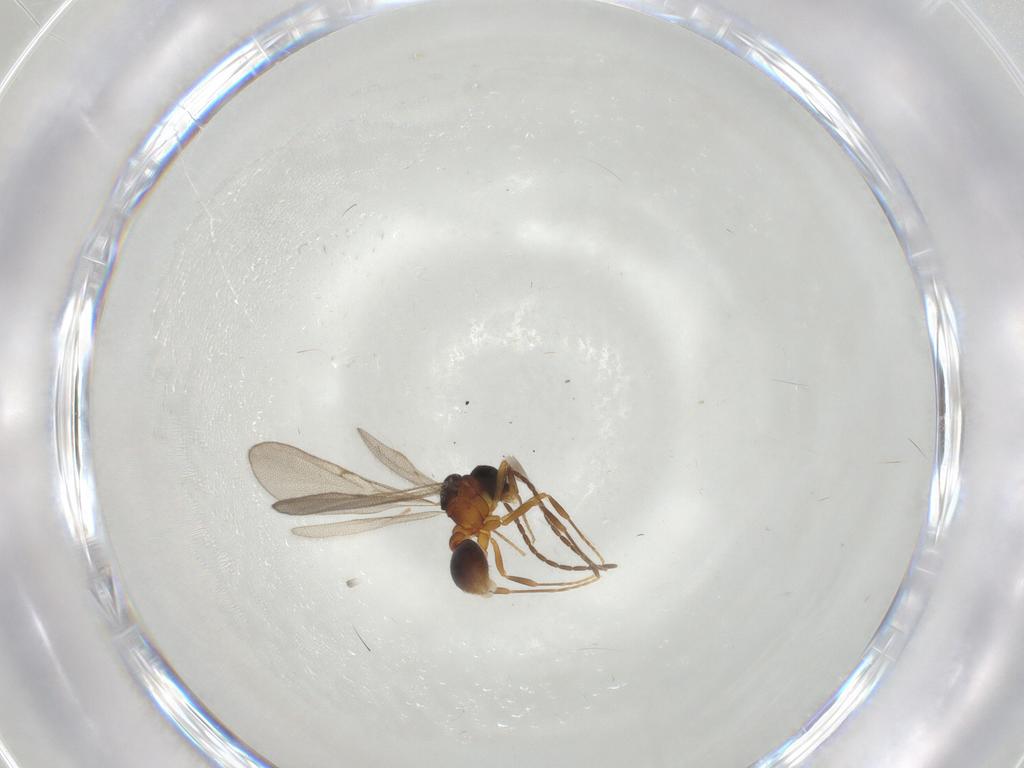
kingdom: Animalia
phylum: Arthropoda
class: Insecta
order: Hymenoptera
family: Formicidae
